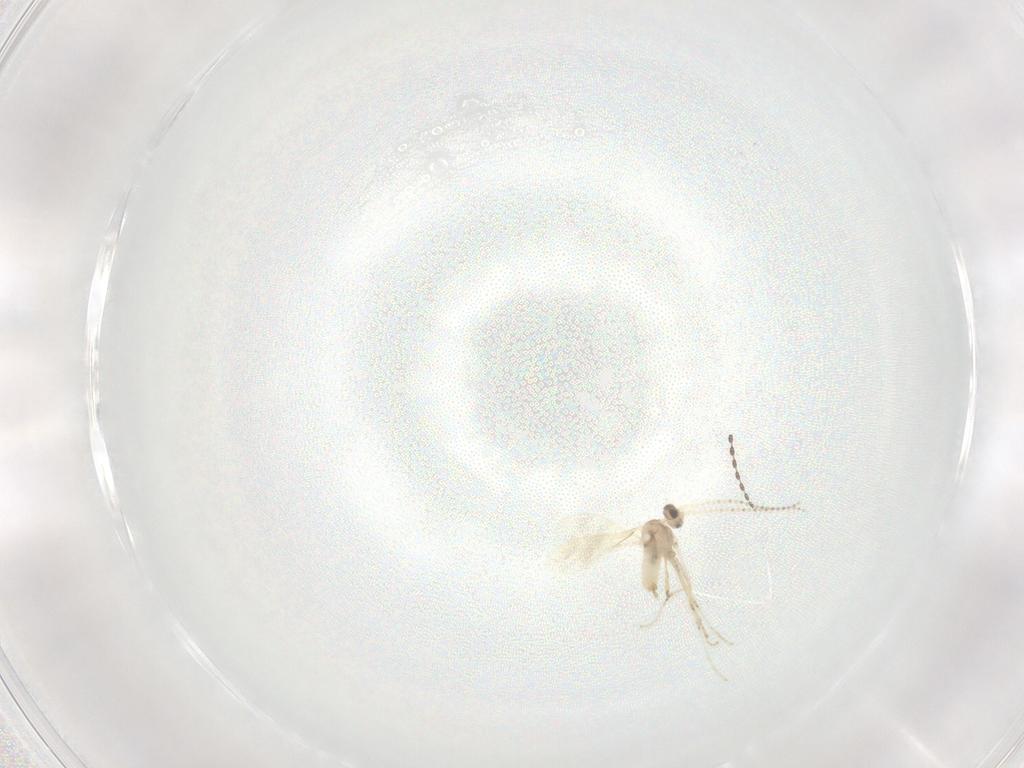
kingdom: Animalia
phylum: Arthropoda
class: Insecta
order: Diptera
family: Cecidomyiidae
